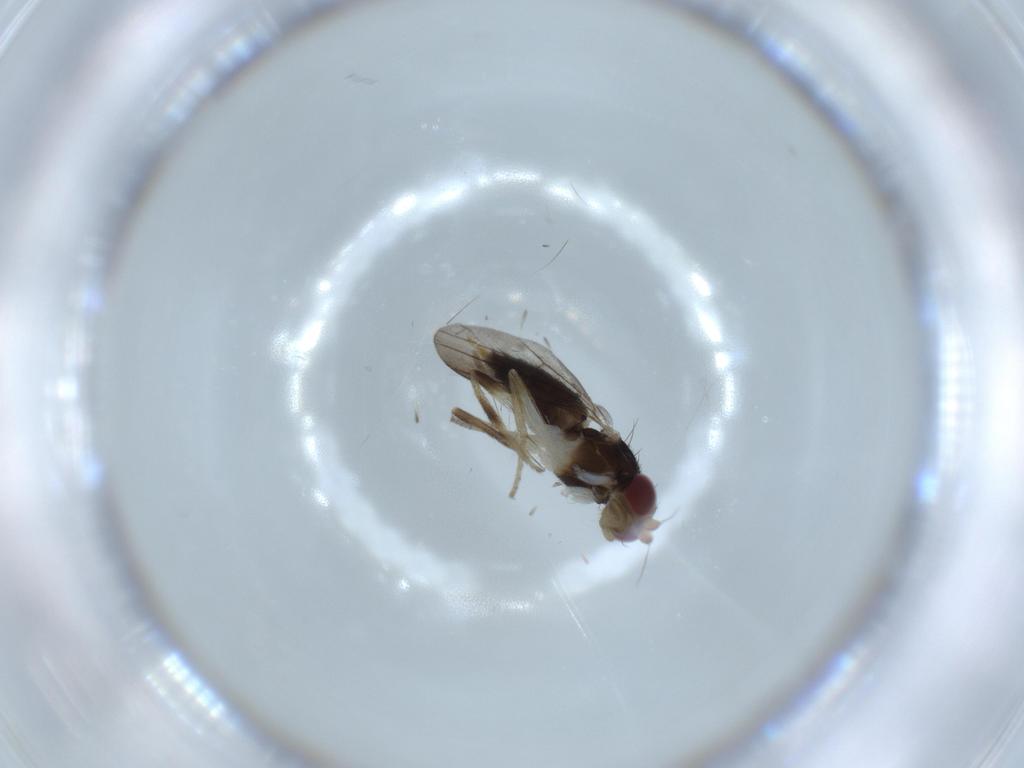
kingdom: Animalia
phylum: Arthropoda
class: Insecta
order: Diptera
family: Clusiidae
